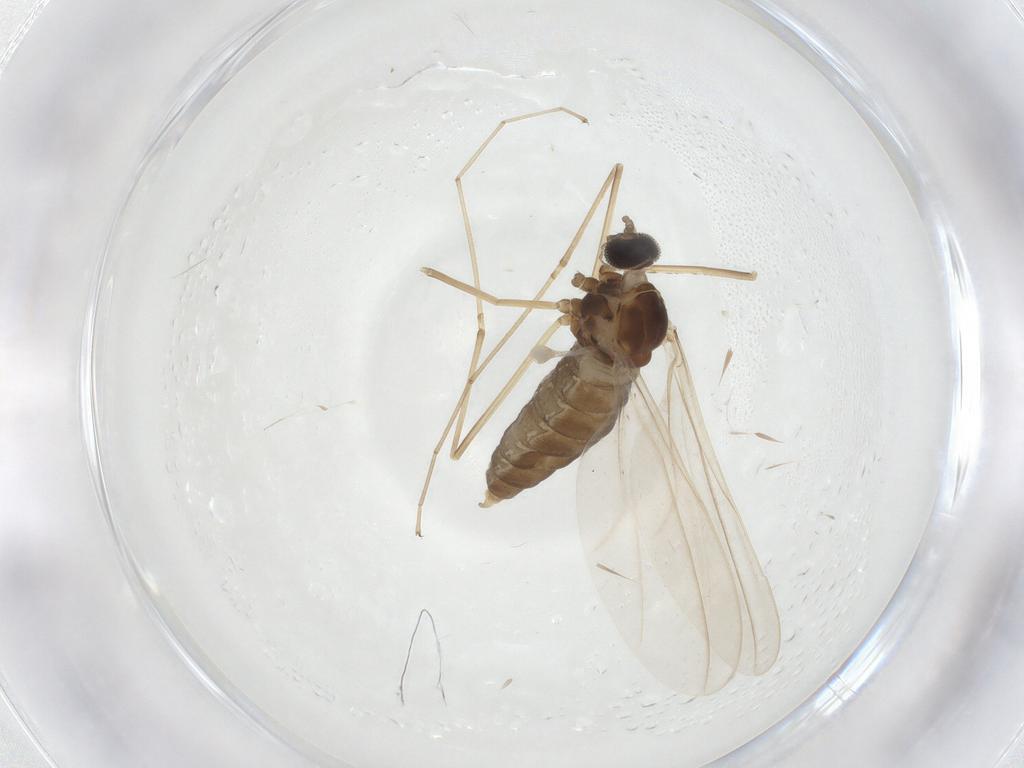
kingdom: Animalia
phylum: Arthropoda
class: Insecta
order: Diptera
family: Cecidomyiidae
